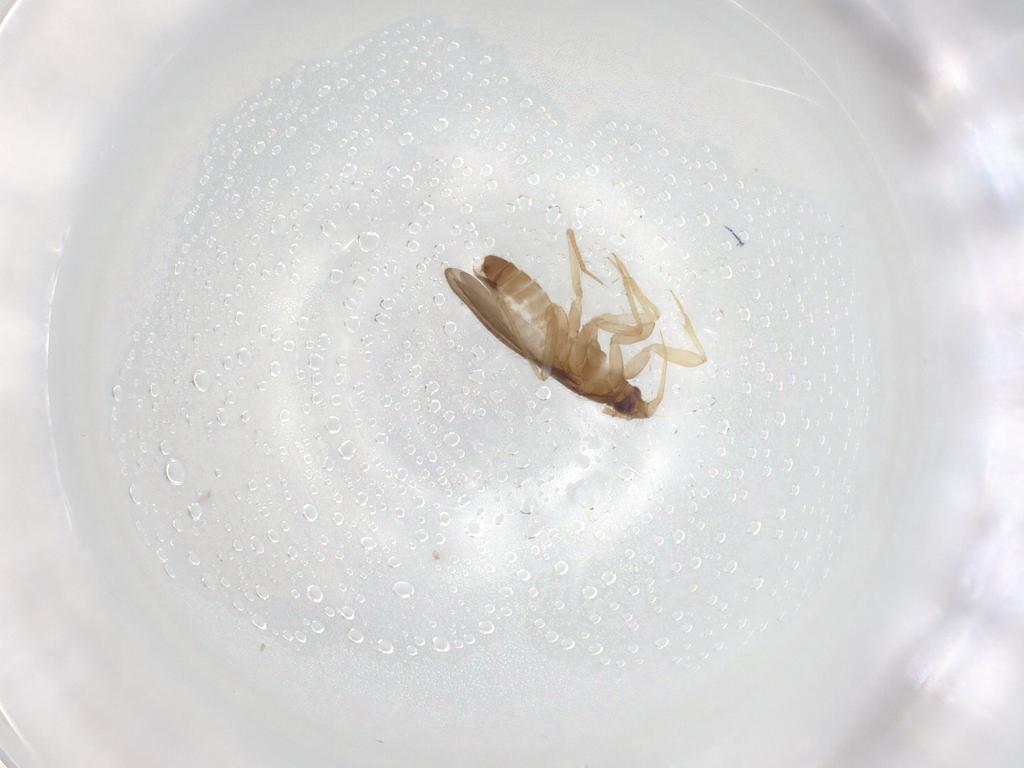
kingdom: Animalia
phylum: Arthropoda
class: Insecta
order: Hemiptera
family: Ceratocombidae
